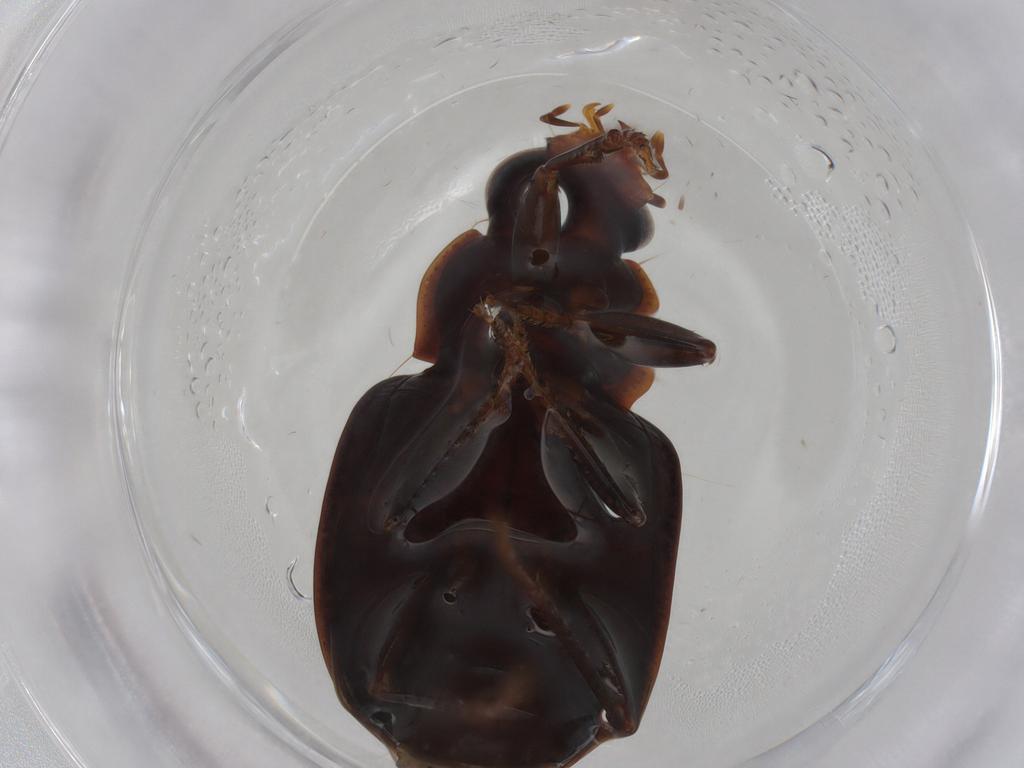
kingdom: Animalia
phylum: Arthropoda
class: Insecta
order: Coleoptera
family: Carabidae
